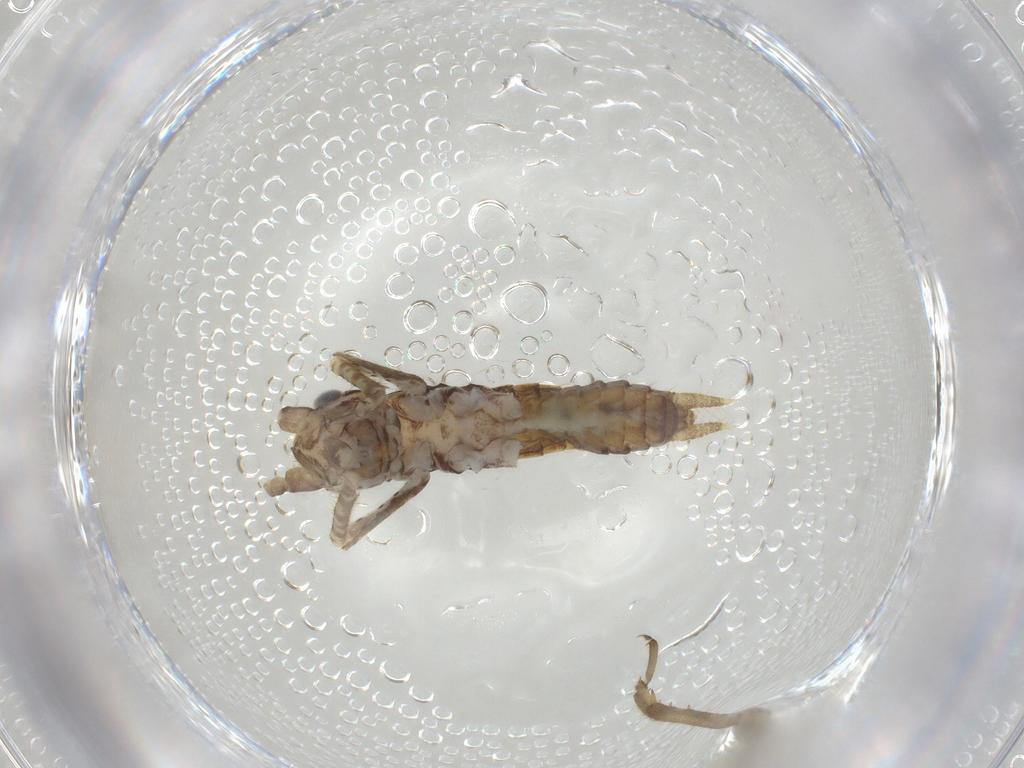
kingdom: Animalia
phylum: Arthropoda
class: Insecta
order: Orthoptera
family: Gryllidae
